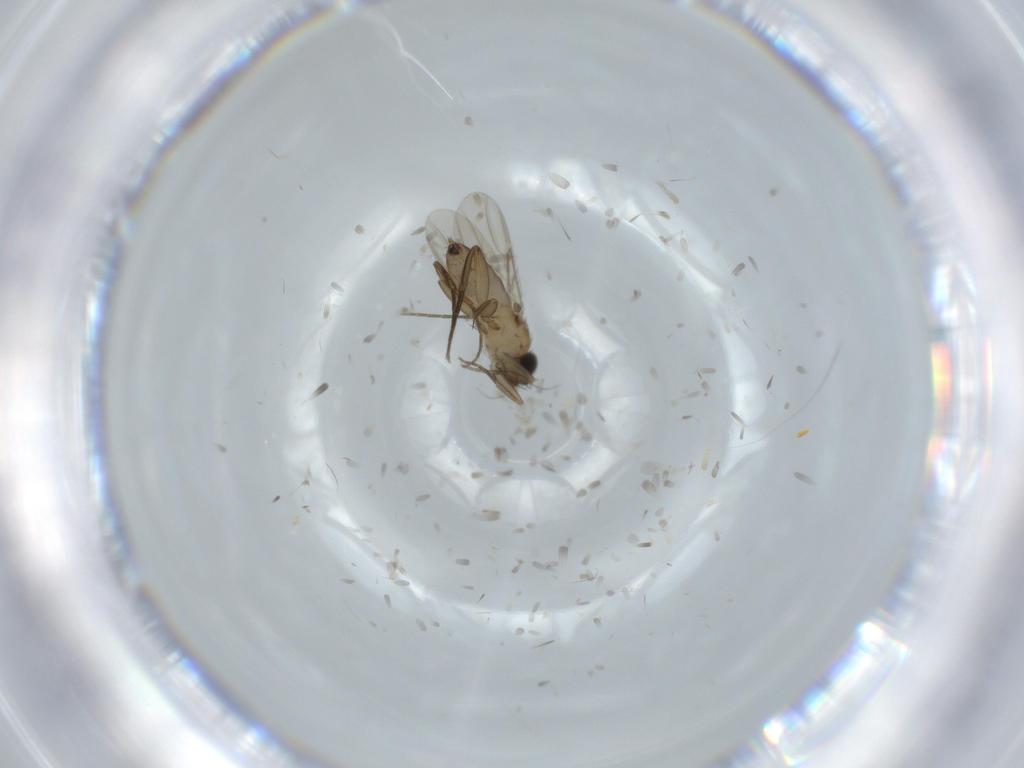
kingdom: Animalia
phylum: Arthropoda
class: Insecta
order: Diptera
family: Phoridae
